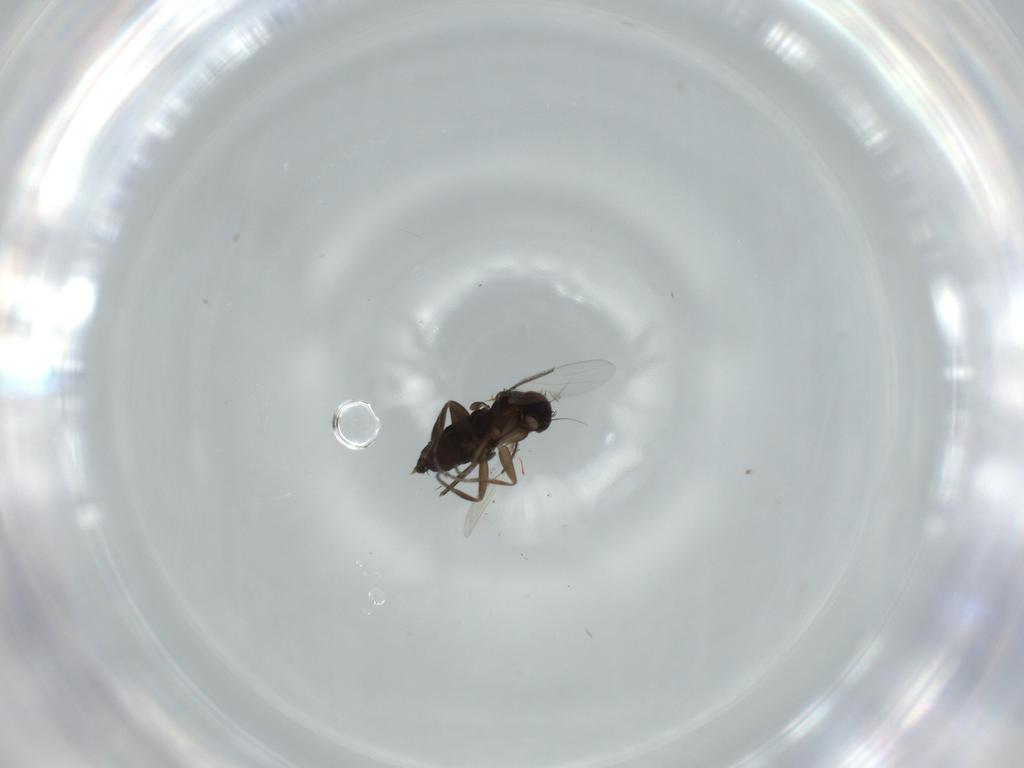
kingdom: Animalia
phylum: Arthropoda
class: Insecta
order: Diptera
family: Phoridae
